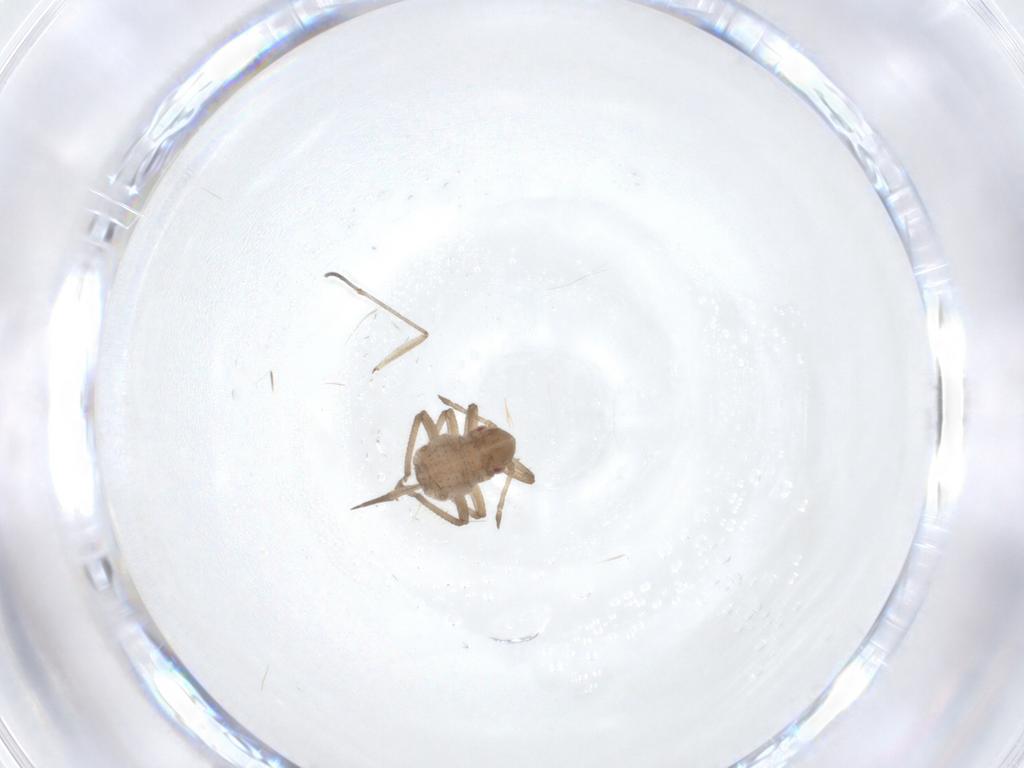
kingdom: Animalia
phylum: Arthropoda
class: Insecta
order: Diptera
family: Sciaridae
